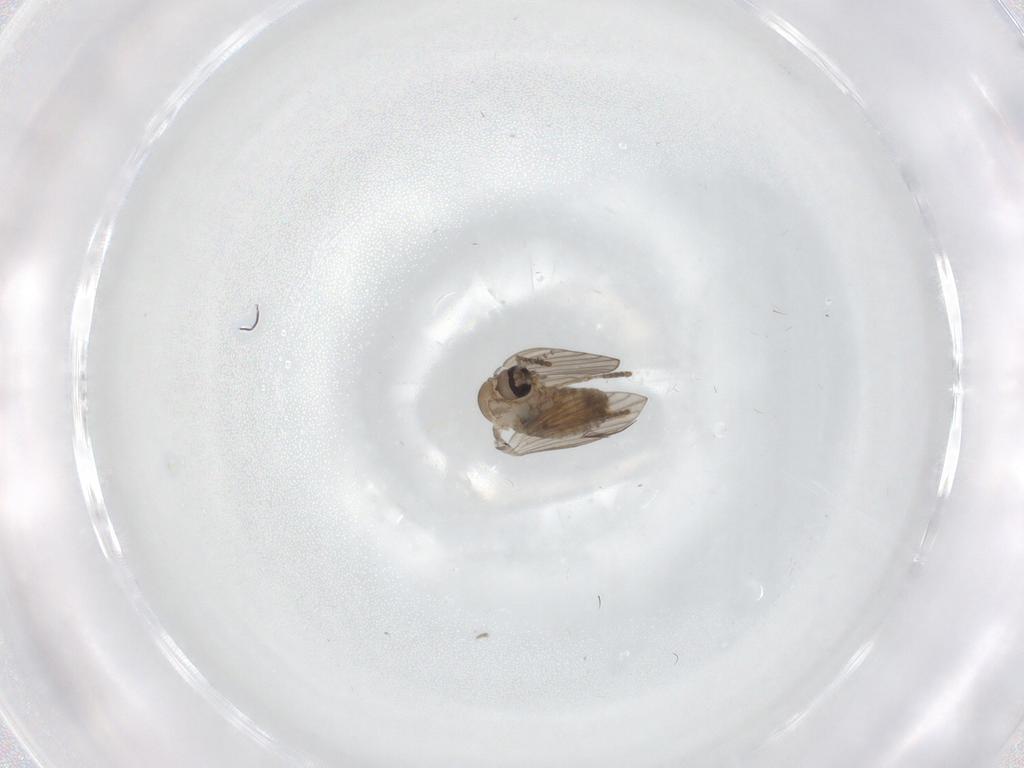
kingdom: Animalia
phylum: Arthropoda
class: Insecta
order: Diptera
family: Psychodidae
